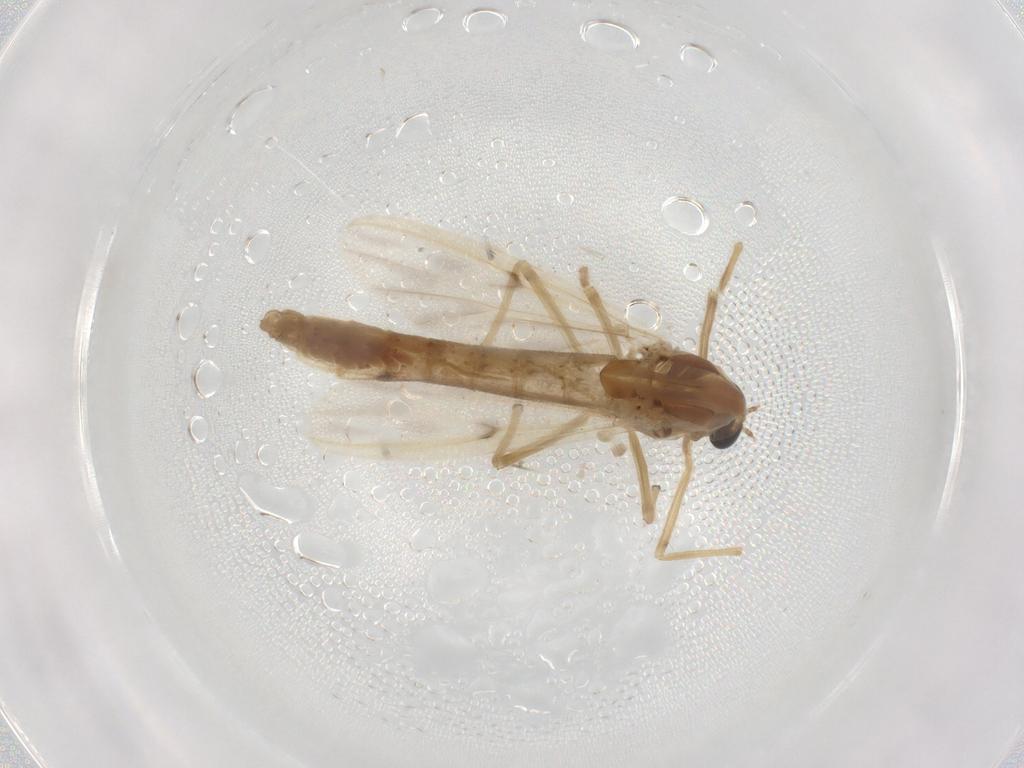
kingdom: Animalia
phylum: Arthropoda
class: Insecta
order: Diptera
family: Chironomidae
